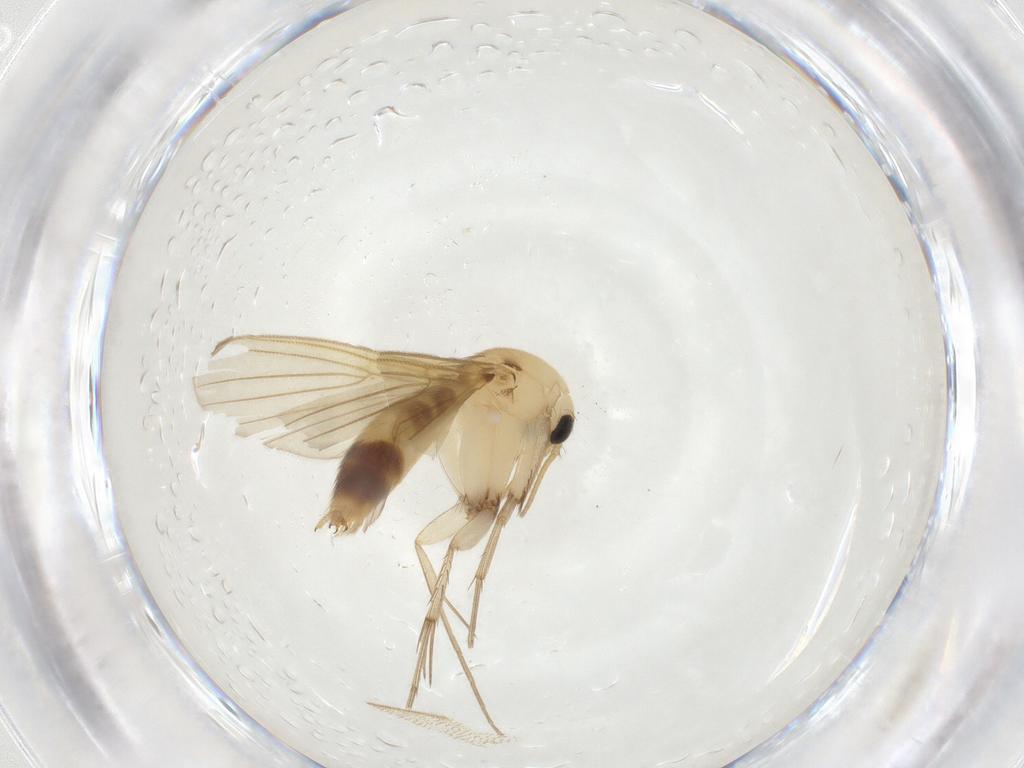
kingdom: Animalia
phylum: Arthropoda
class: Insecta
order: Diptera
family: Mycetophilidae
